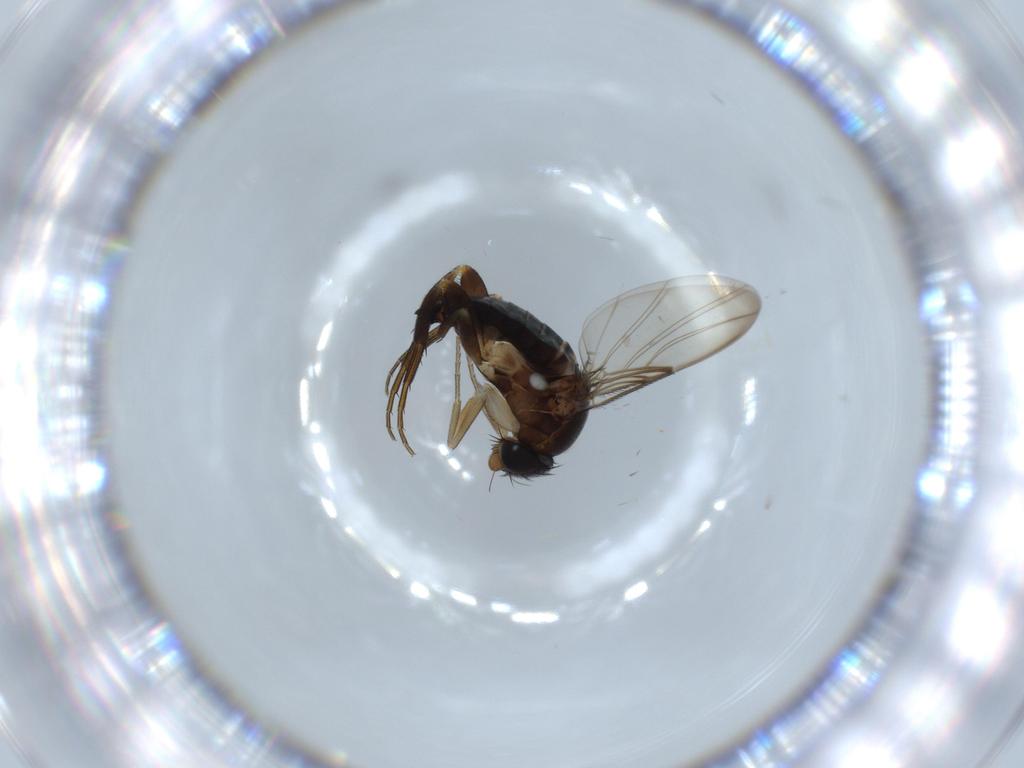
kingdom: Animalia
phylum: Arthropoda
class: Insecta
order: Diptera
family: Phoridae
